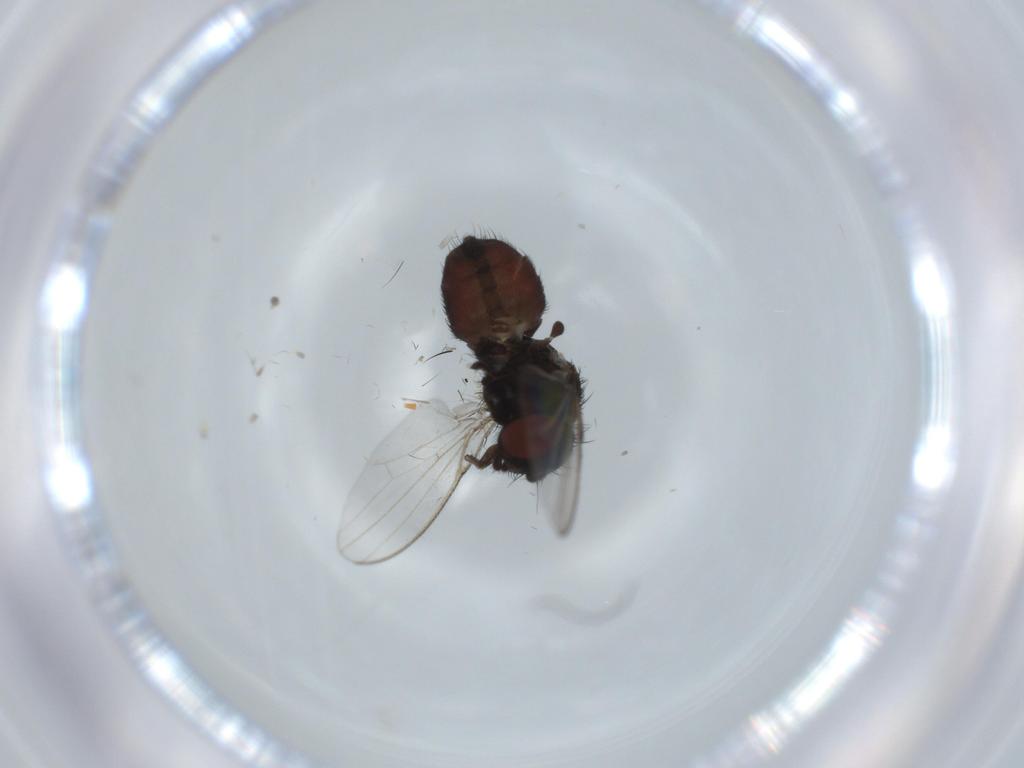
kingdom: Animalia
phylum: Arthropoda
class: Insecta
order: Diptera
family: Milichiidae
